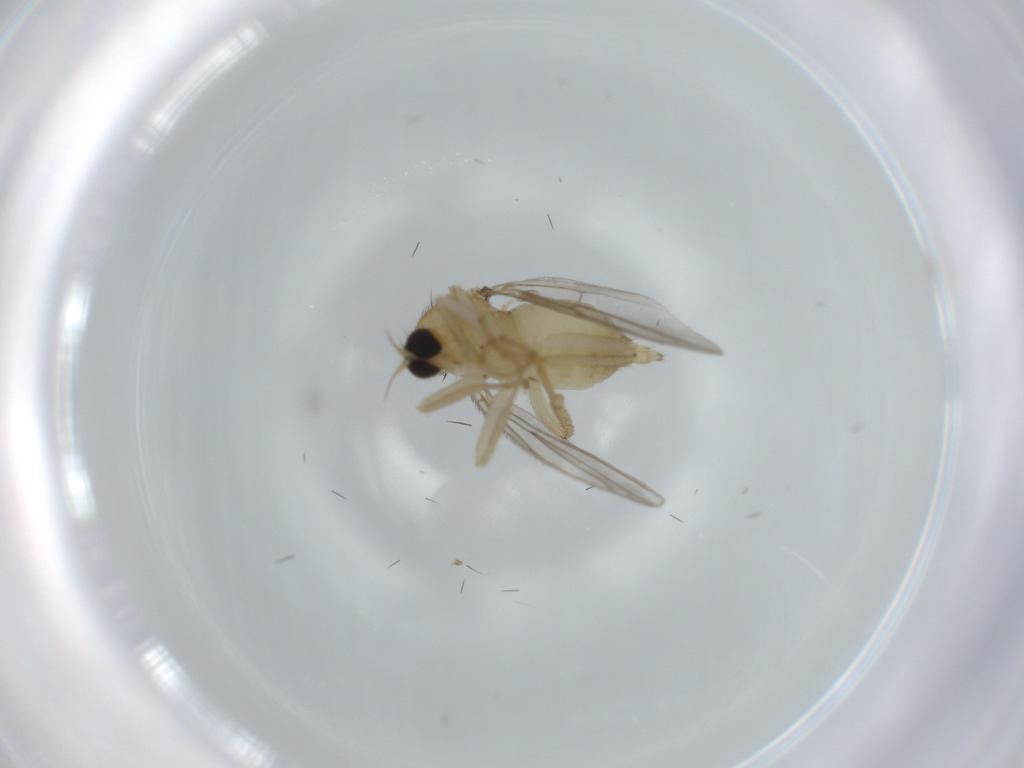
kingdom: Animalia
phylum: Arthropoda
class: Insecta
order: Diptera
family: Hybotidae
